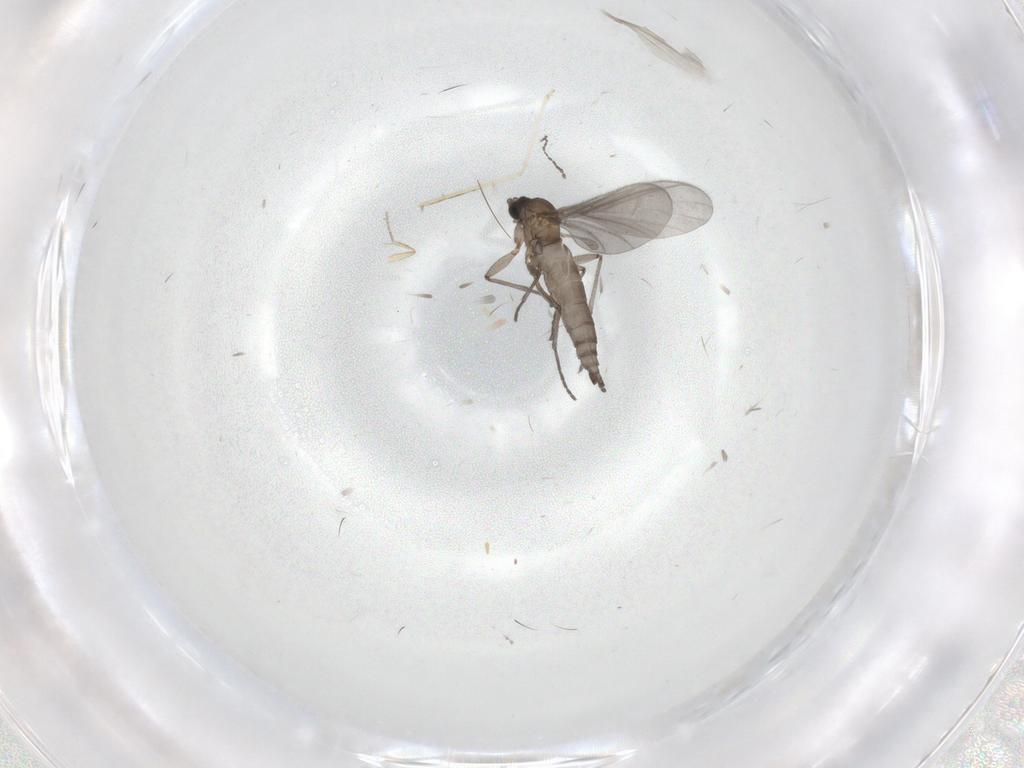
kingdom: Animalia
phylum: Arthropoda
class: Insecta
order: Diptera
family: Sciaridae
